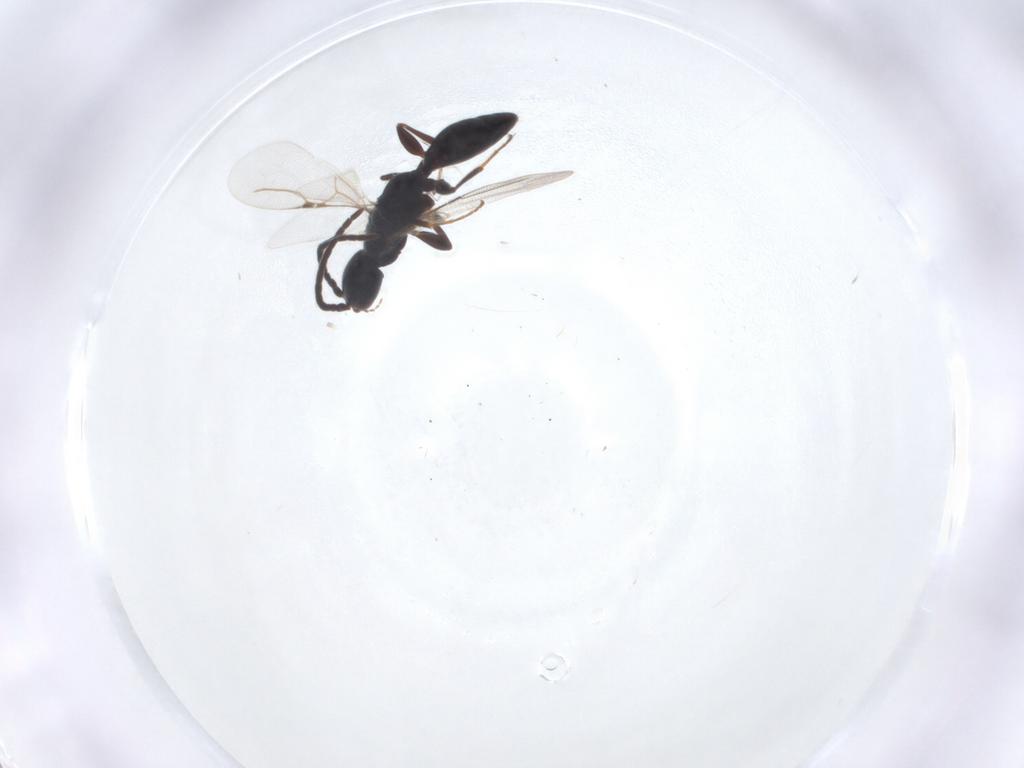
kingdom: Animalia
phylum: Arthropoda
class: Insecta
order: Hymenoptera
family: Bethylidae
